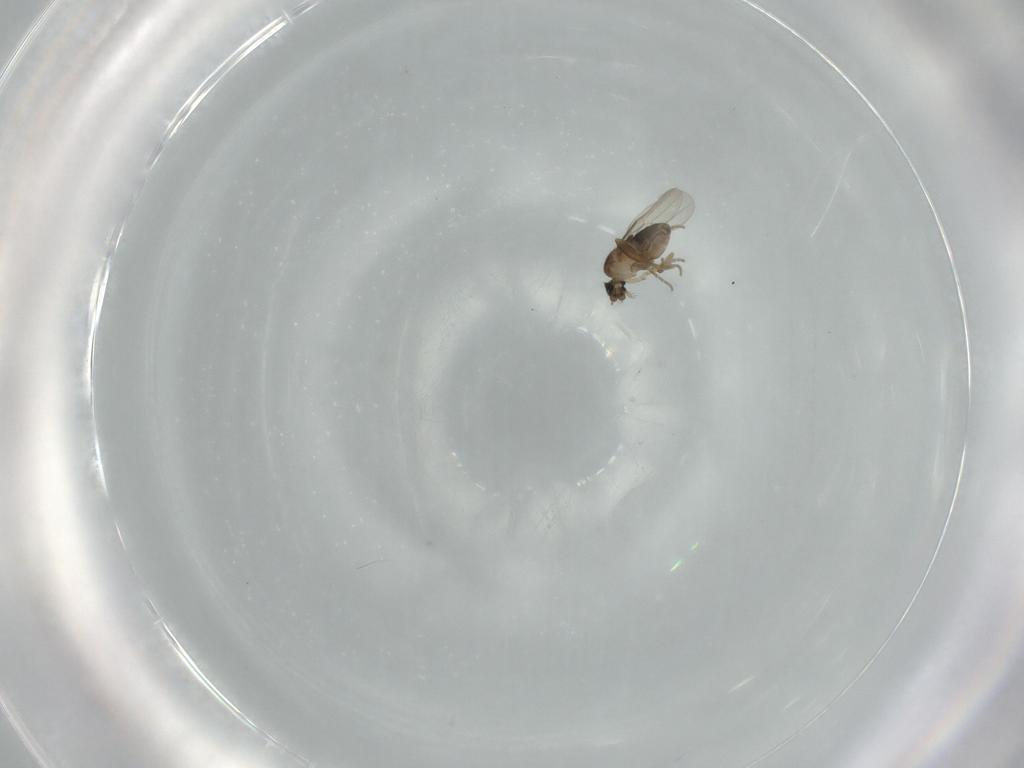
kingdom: Animalia
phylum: Arthropoda
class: Insecta
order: Diptera
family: Phoridae
